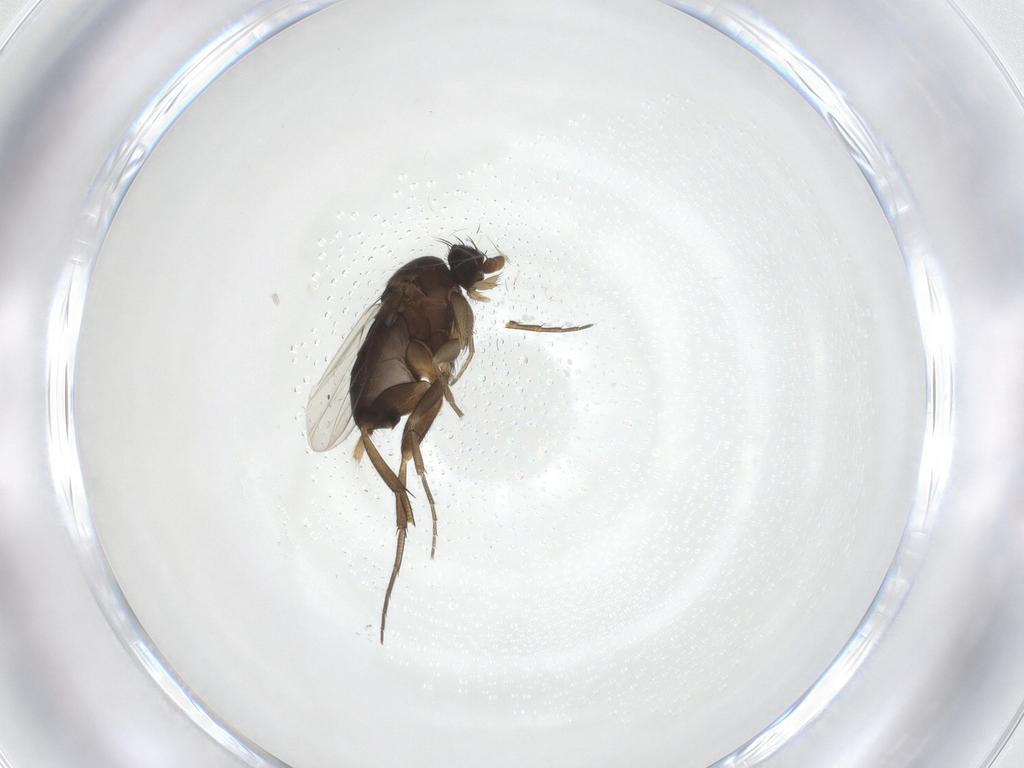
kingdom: Animalia
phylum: Arthropoda
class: Insecta
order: Diptera
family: Phoridae
